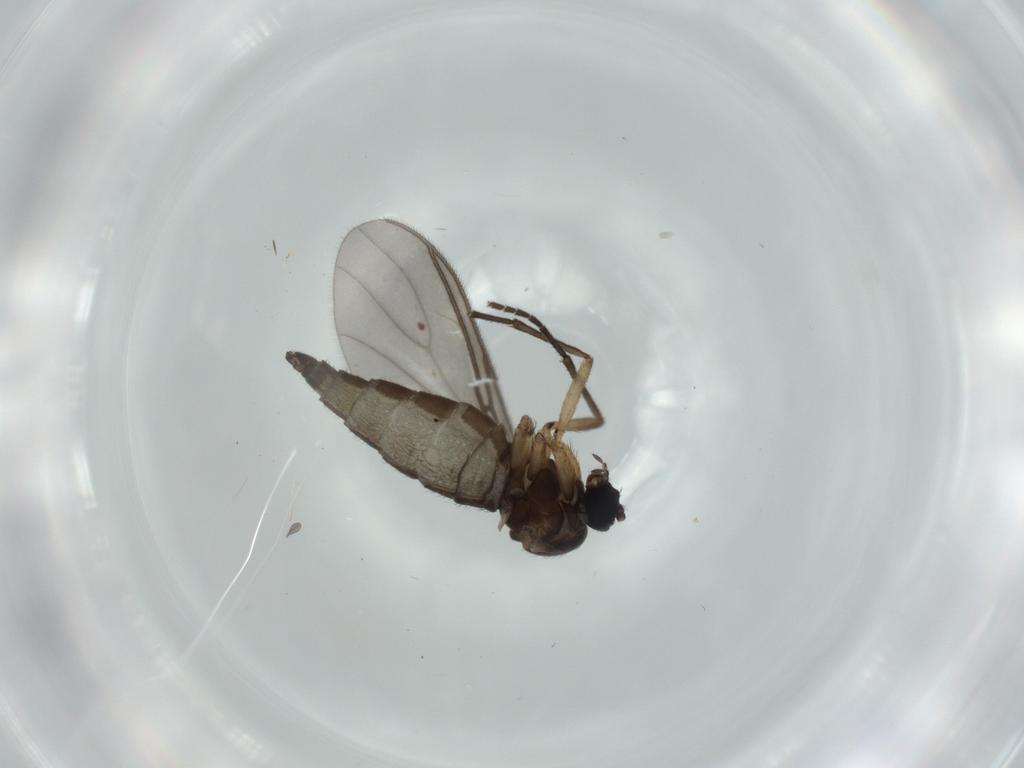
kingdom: Animalia
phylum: Arthropoda
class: Insecta
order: Diptera
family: Sciaridae
